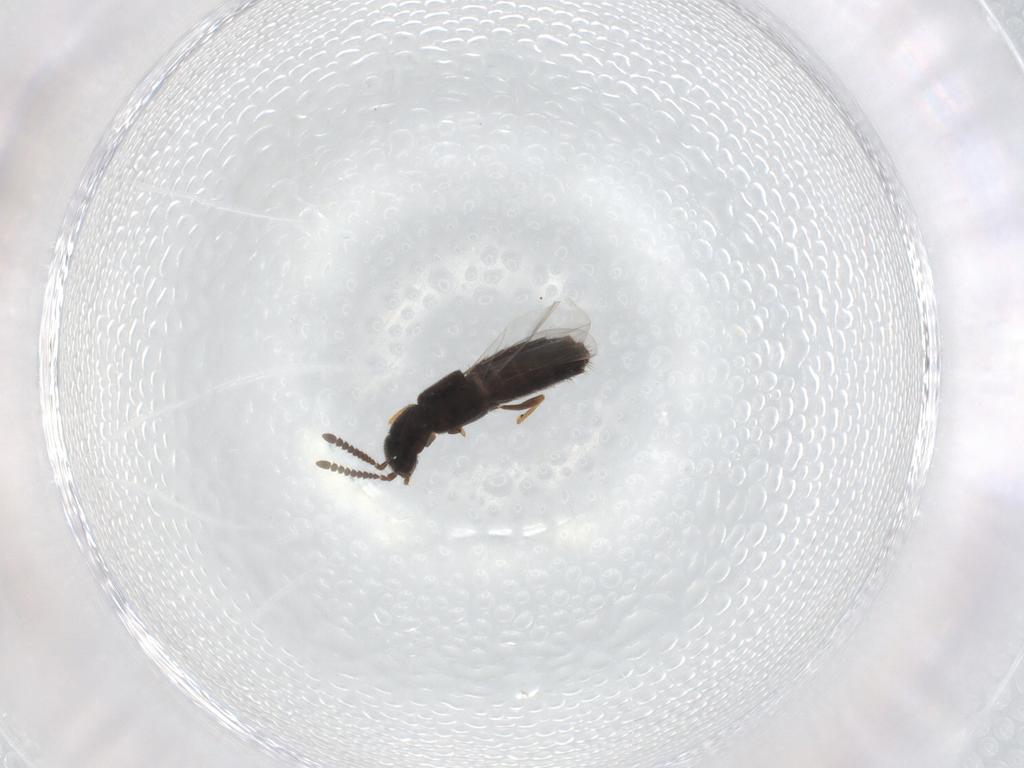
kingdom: Animalia
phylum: Arthropoda
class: Insecta
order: Coleoptera
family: Staphylinidae
